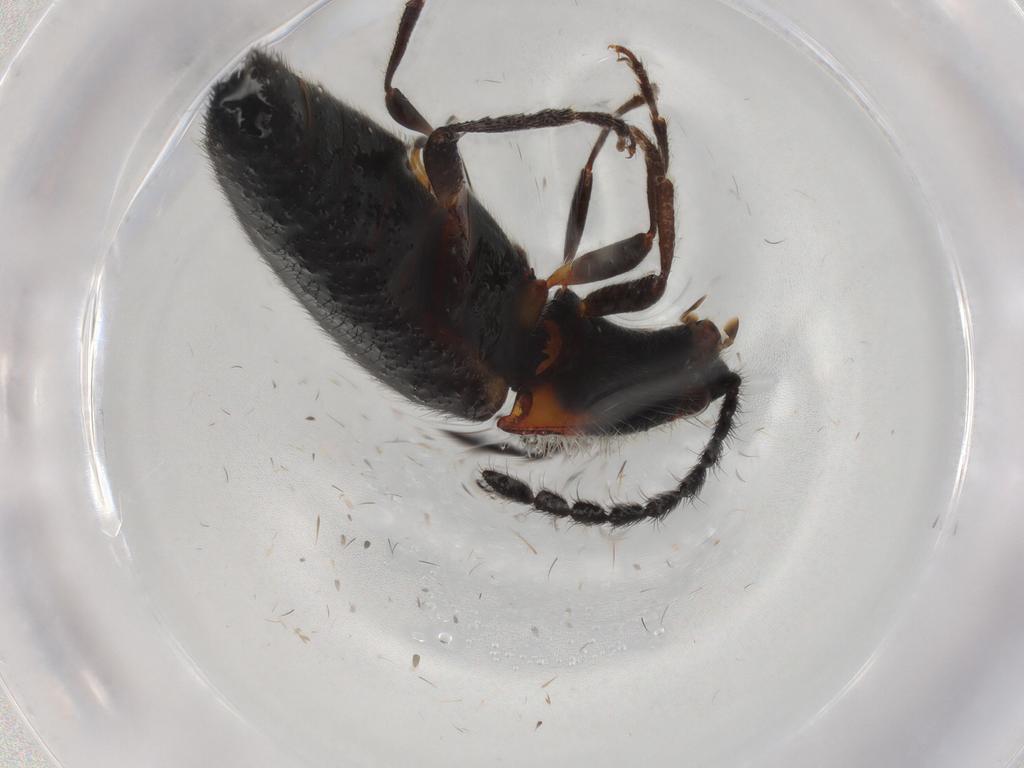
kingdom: Animalia
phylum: Arthropoda
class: Insecta
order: Coleoptera
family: Elateridae
